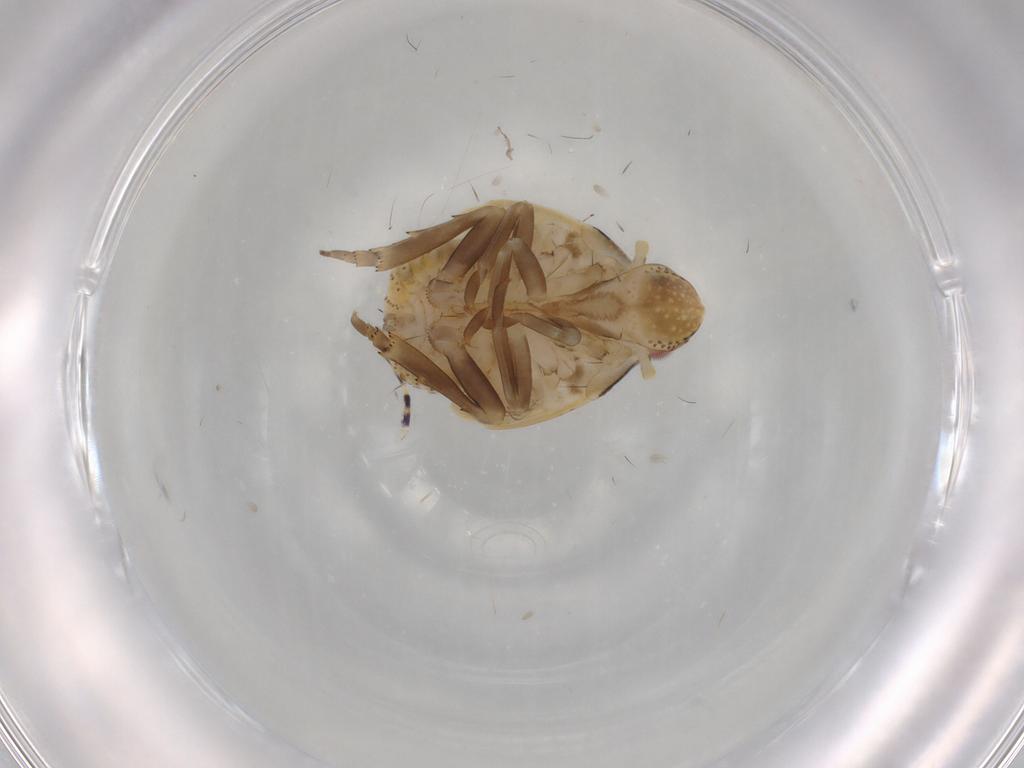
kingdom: Animalia
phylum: Arthropoda
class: Insecta
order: Hemiptera
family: Flatidae
